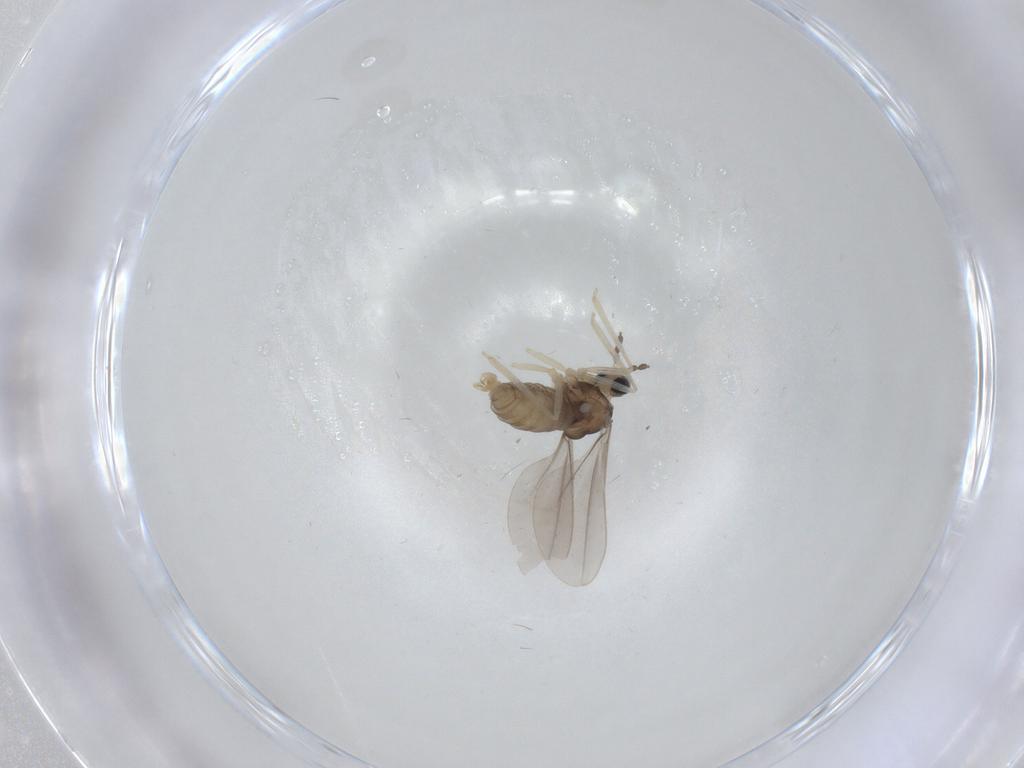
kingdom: Animalia
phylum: Arthropoda
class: Insecta
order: Diptera
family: Cecidomyiidae
